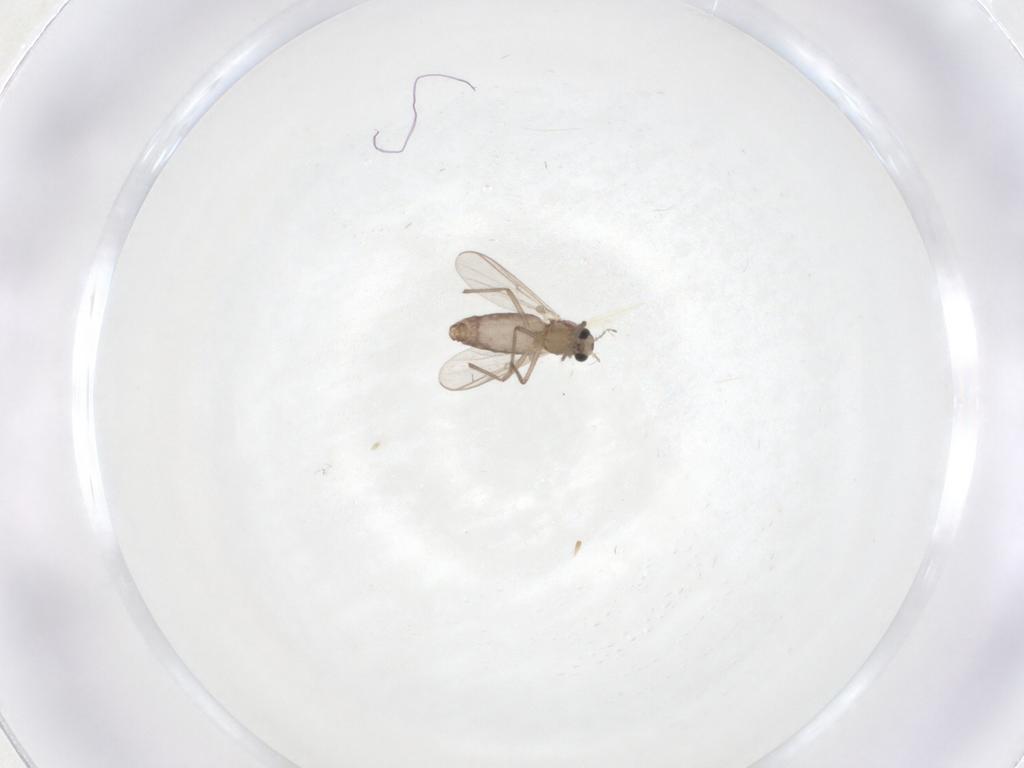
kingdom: Animalia
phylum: Arthropoda
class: Insecta
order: Diptera
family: Chironomidae
